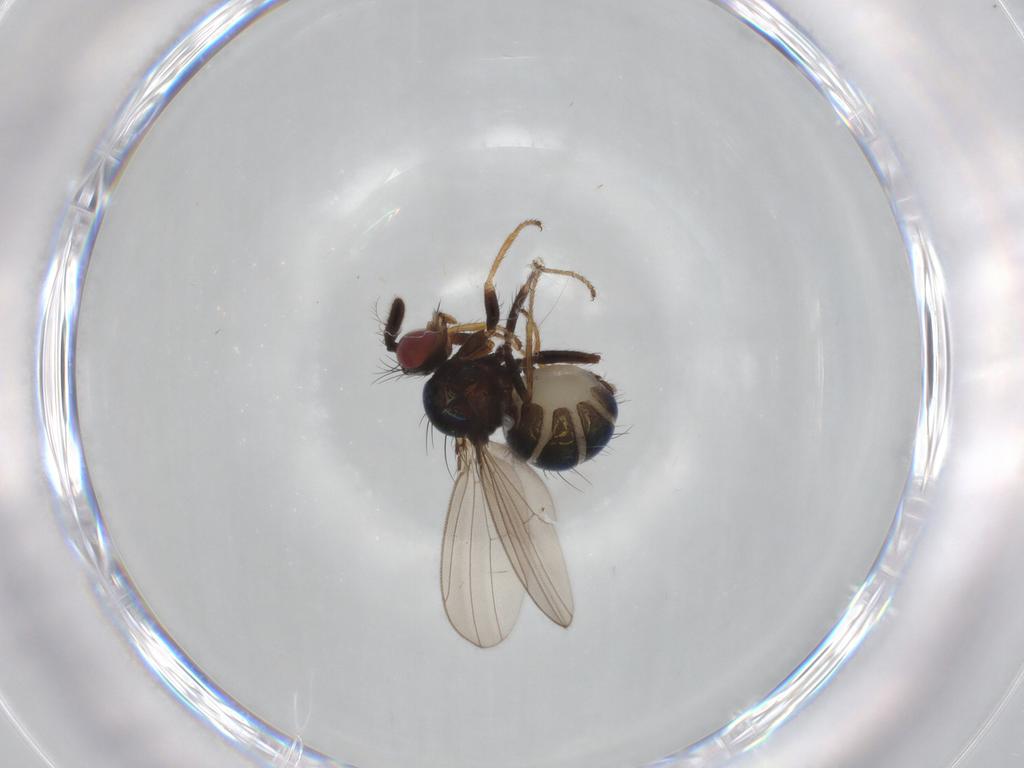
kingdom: Animalia
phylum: Arthropoda
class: Insecta
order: Diptera
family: Ephydridae
